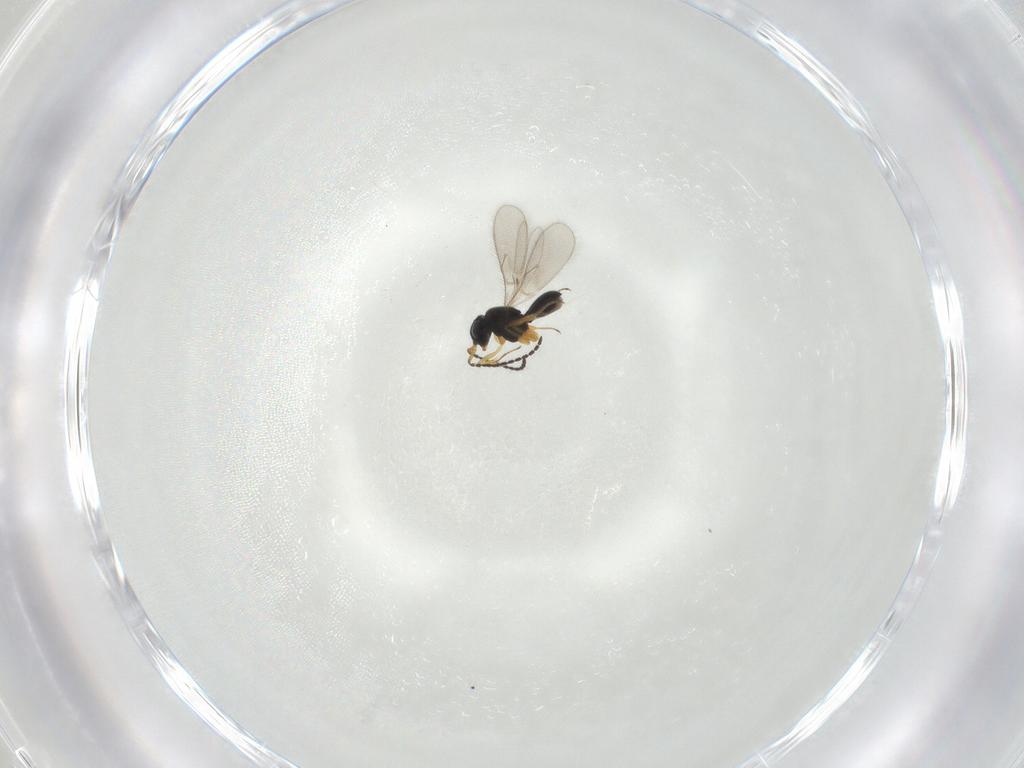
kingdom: Animalia
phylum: Arthropoda
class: Insecta
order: Hymenoptera
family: Scelionidae
